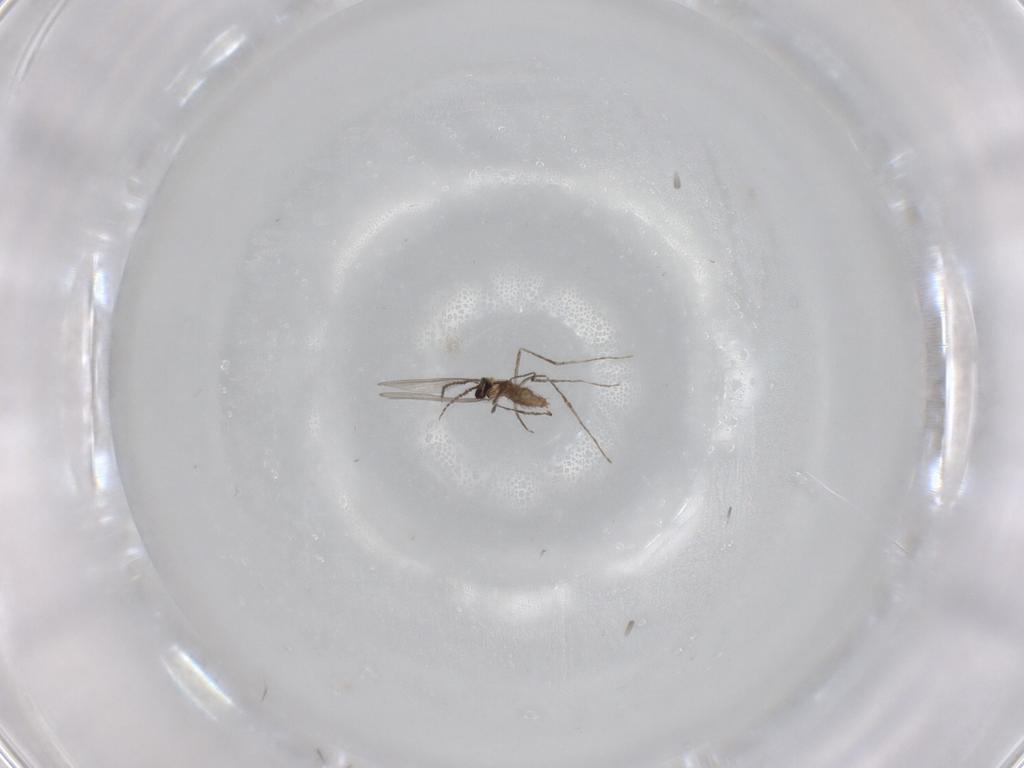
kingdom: Animalia
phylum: Arthropoda
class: Insecta
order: Diptera
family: Cecidomyiidae
